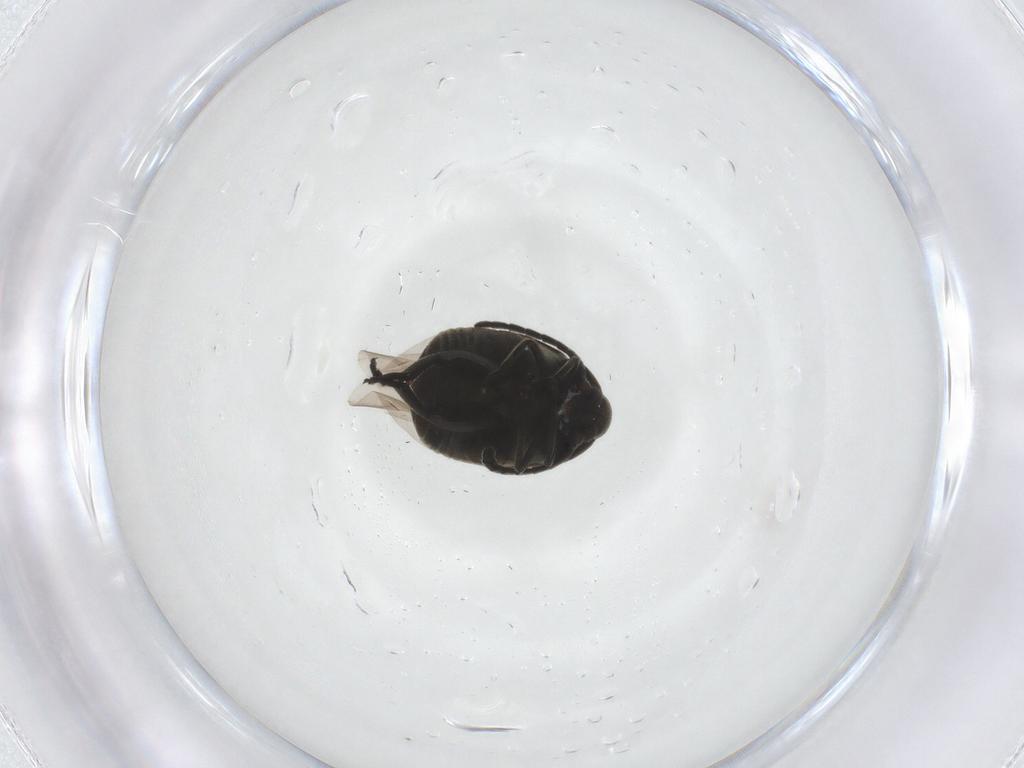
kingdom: Animalia
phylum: Arthropoda
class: Insecta
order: Coleoptera
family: Chrysomelidae
